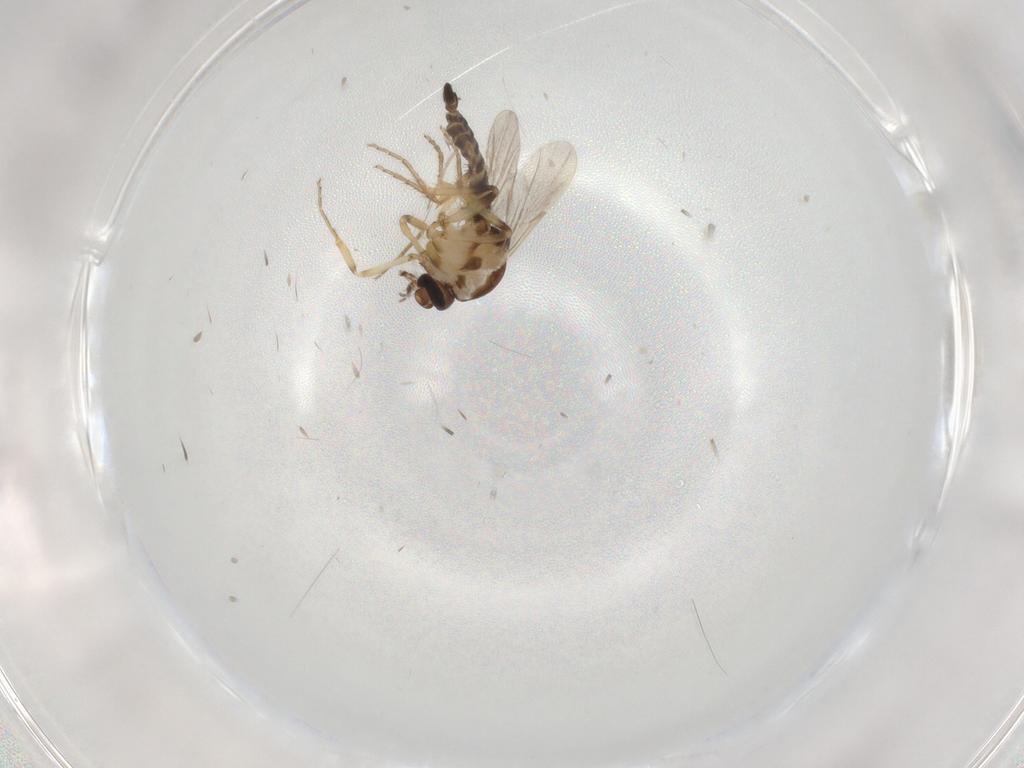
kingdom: Animalia
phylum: Arthropoda
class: Insecta
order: Diptera
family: Ceratopogonidae
